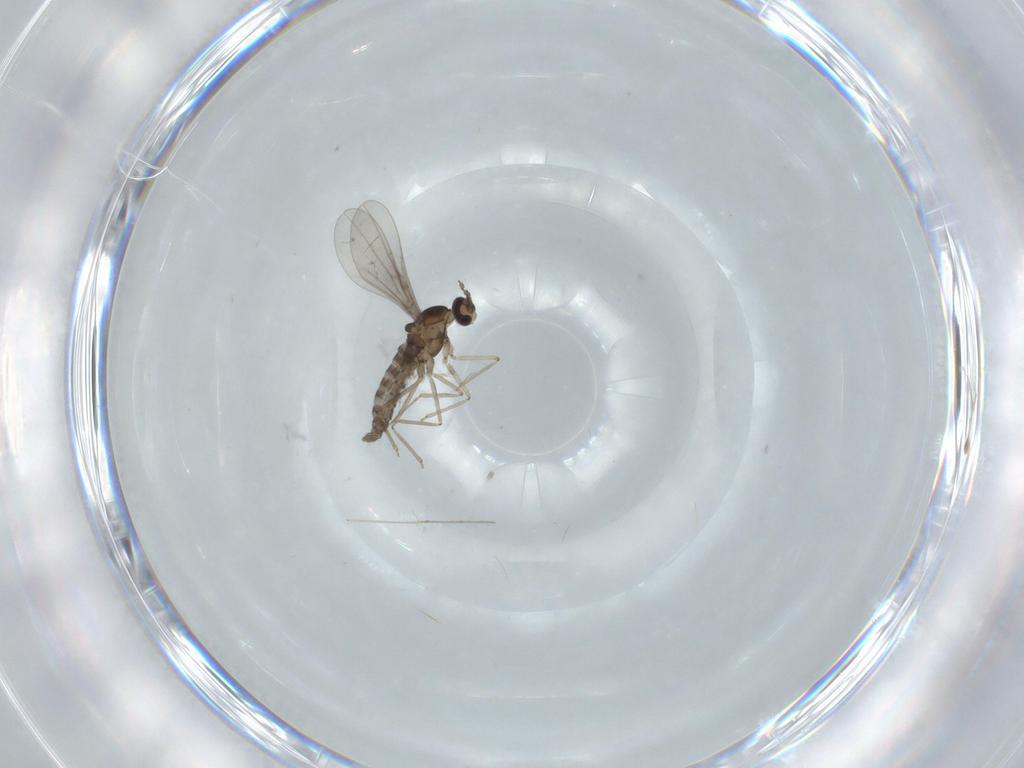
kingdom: Animalia
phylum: Arthropoda
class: Insecta
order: Diptera
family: Cecidomyiidae
